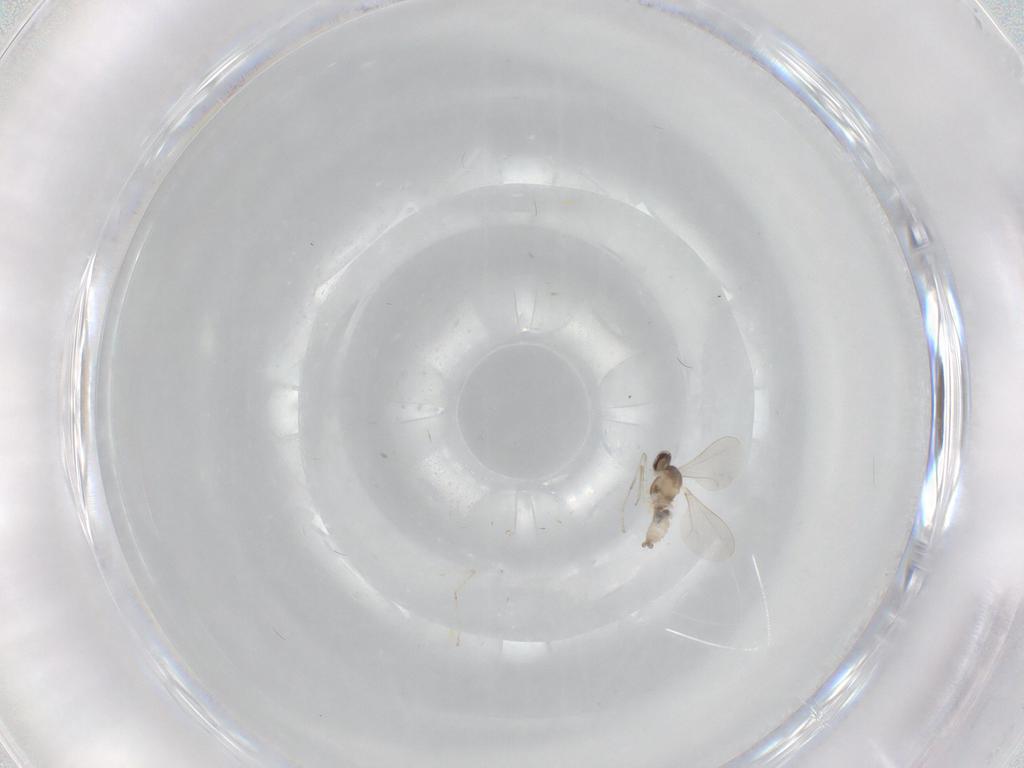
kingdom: Animalia
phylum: Arthropoda
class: Insecta
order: Diptera
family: Cecidomyiidae
